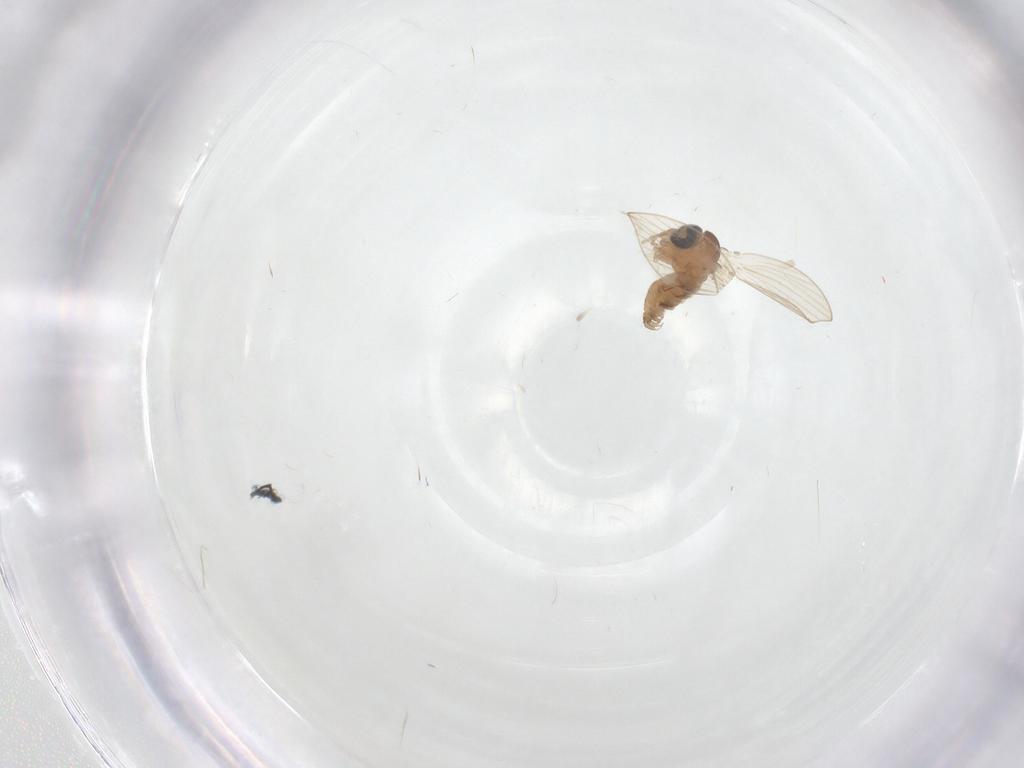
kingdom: Animalia
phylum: Arthropoda
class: Insecta
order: Diptera
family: Psychodidae
